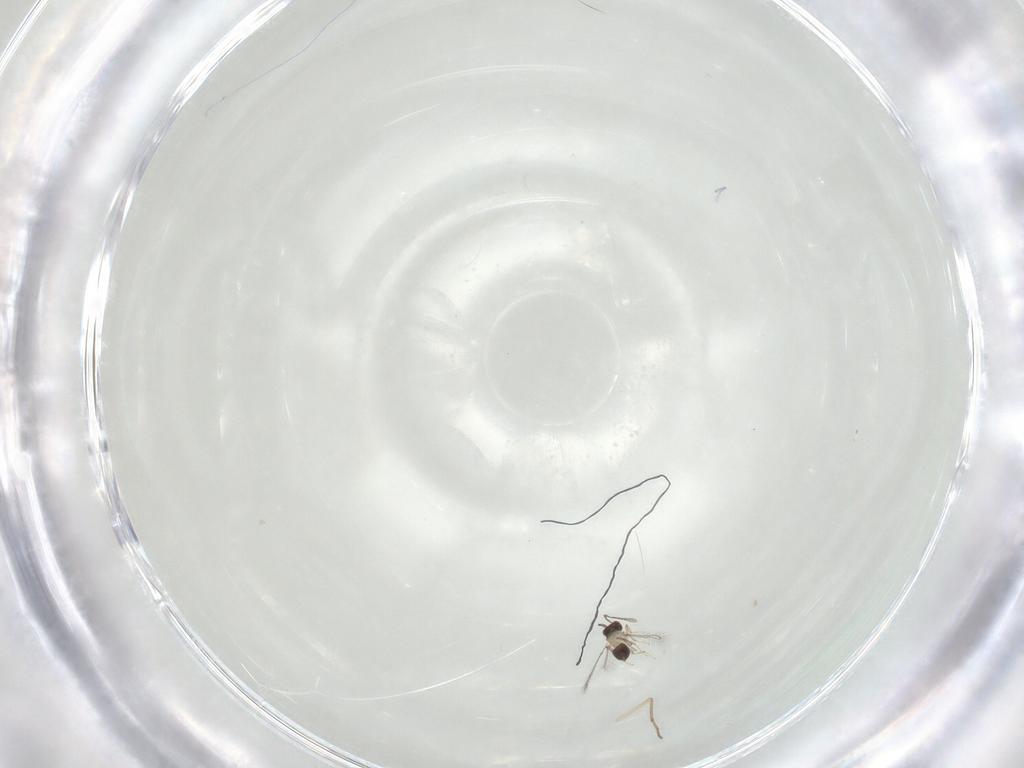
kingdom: Animalia
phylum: Arthropoda
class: Insecta
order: Diptera
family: Chironomidae
